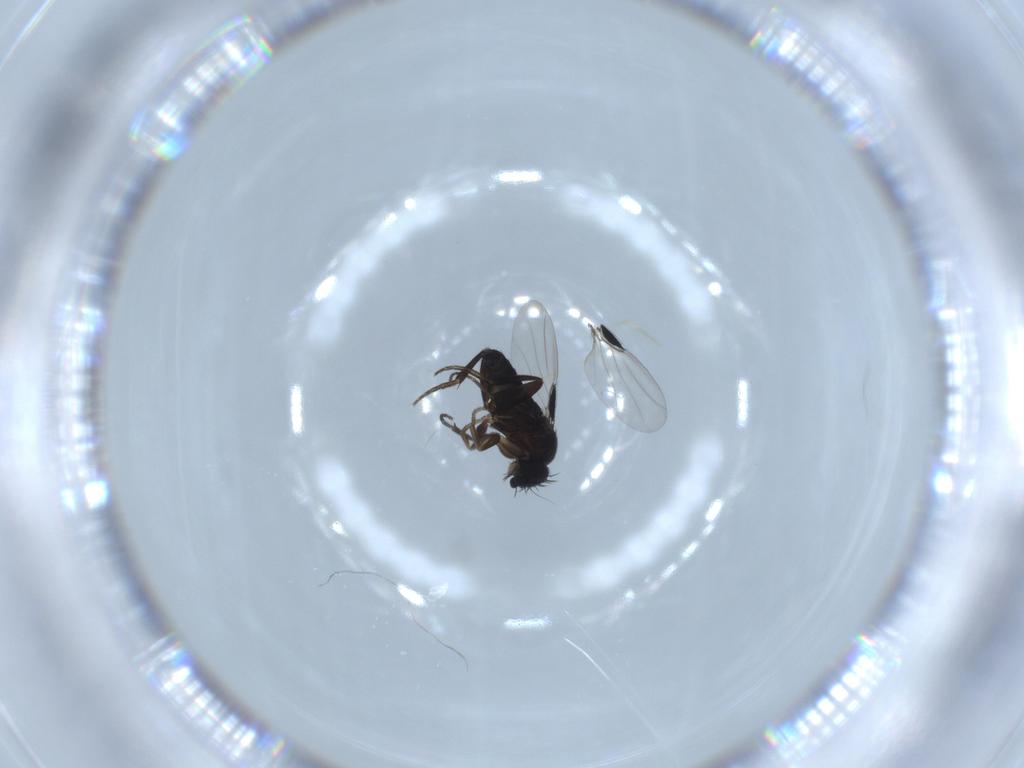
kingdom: Animalia
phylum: Arthropoda
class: Insecta
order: Diptera
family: Phoridae
